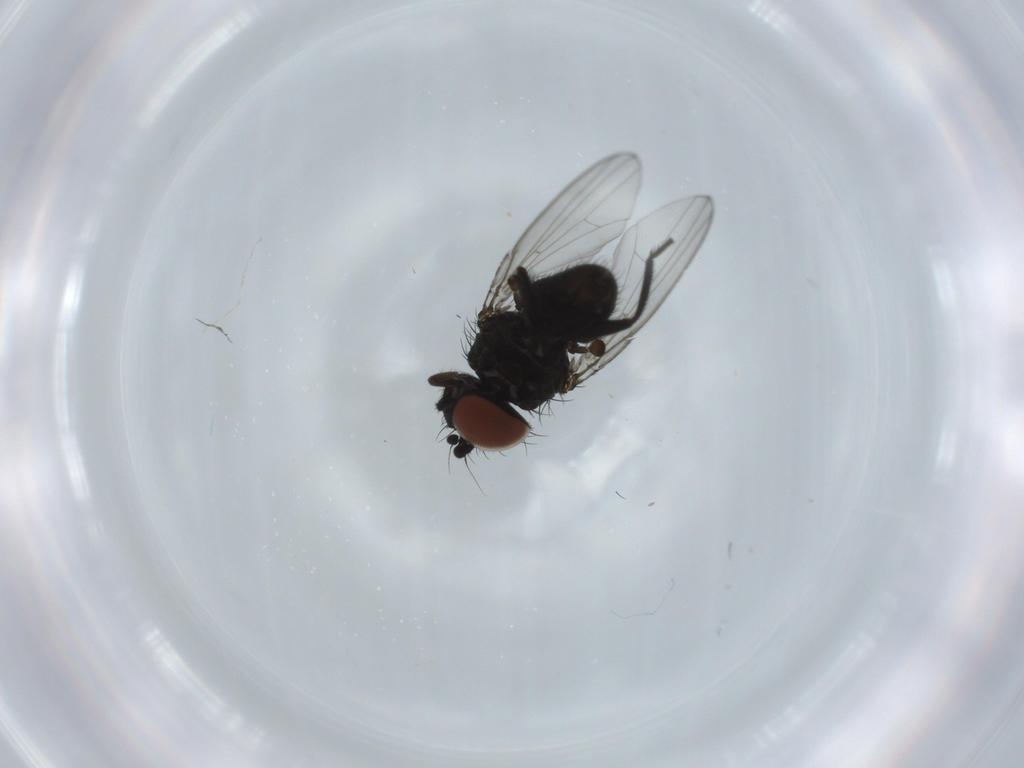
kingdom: Animalia
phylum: Arthropoda
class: Insecta
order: Diptera
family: Milichiidae
